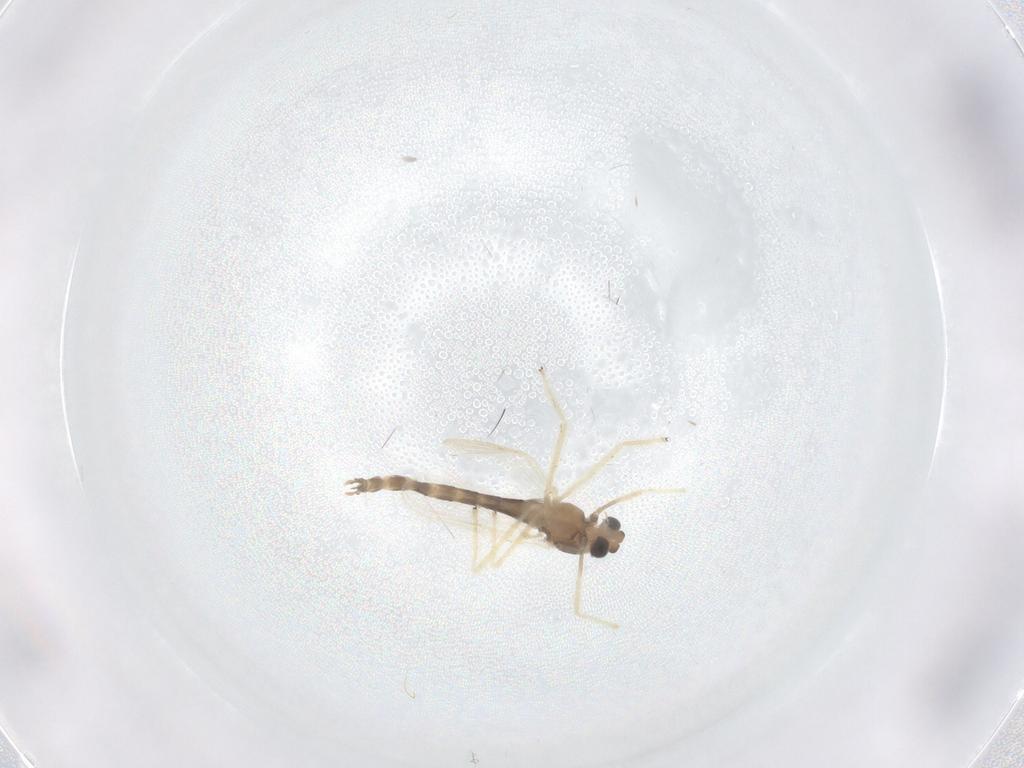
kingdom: Animalia
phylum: Arthropoda
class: Insecta
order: Diptera
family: Chironomidae
